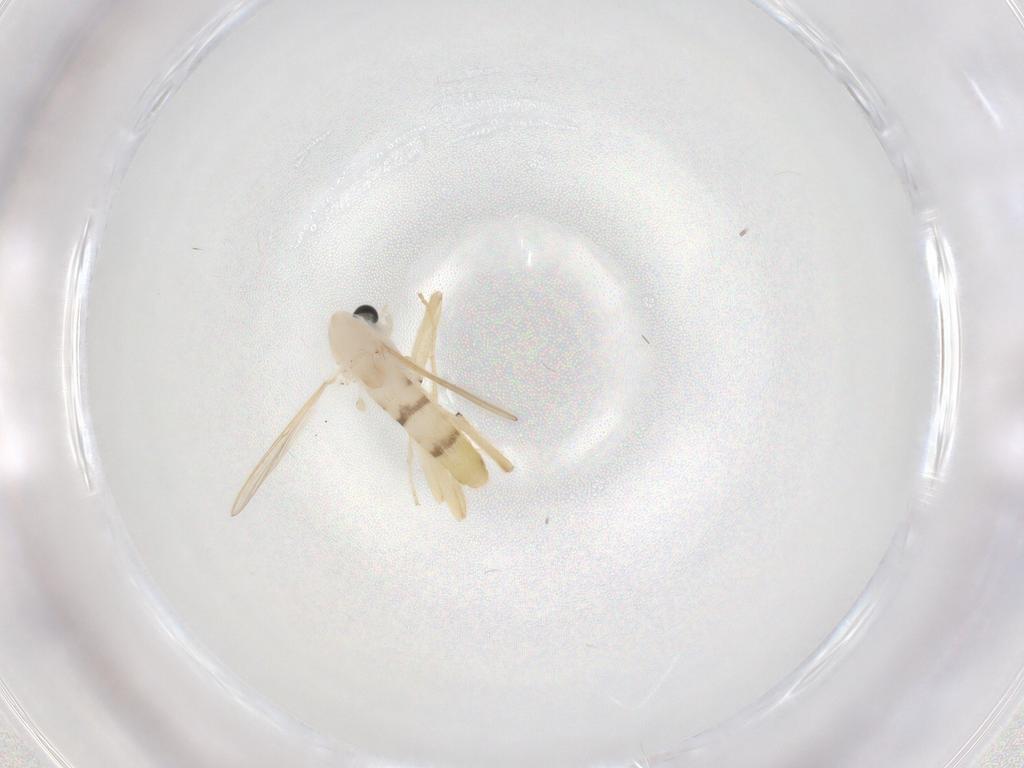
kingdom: Animalia
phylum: Arthropoda
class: Insecta
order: Diptera
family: Chironomidae
